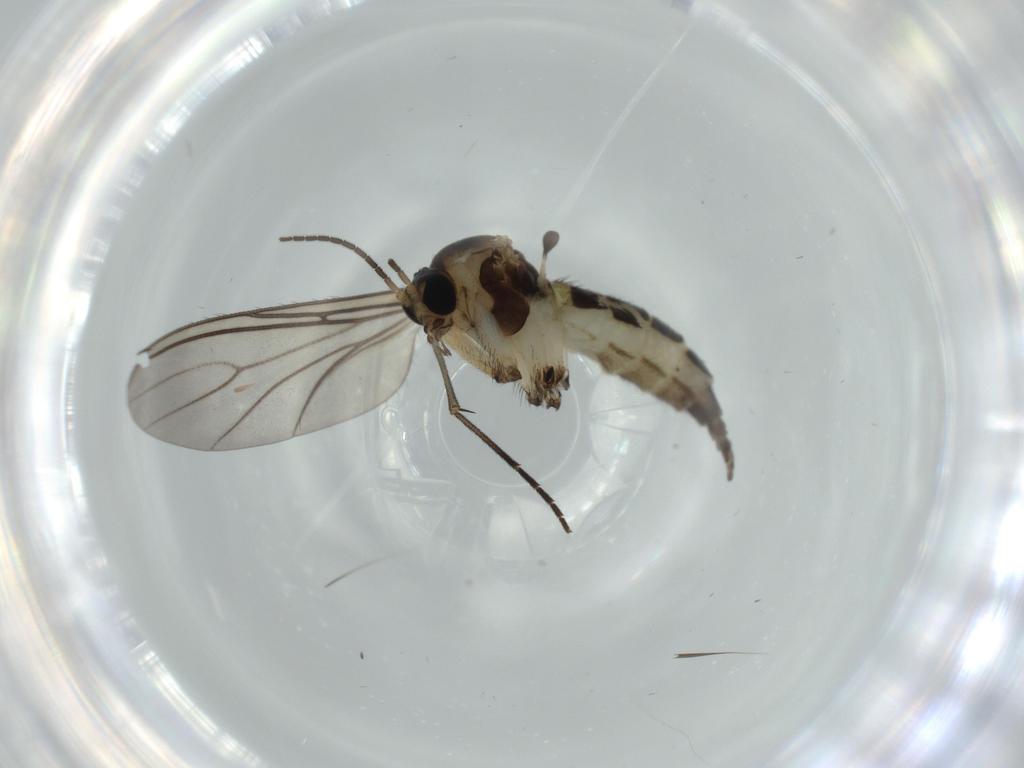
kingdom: Animalia
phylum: Arthropoda
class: Insecta
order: Diptera
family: Sciaridae
